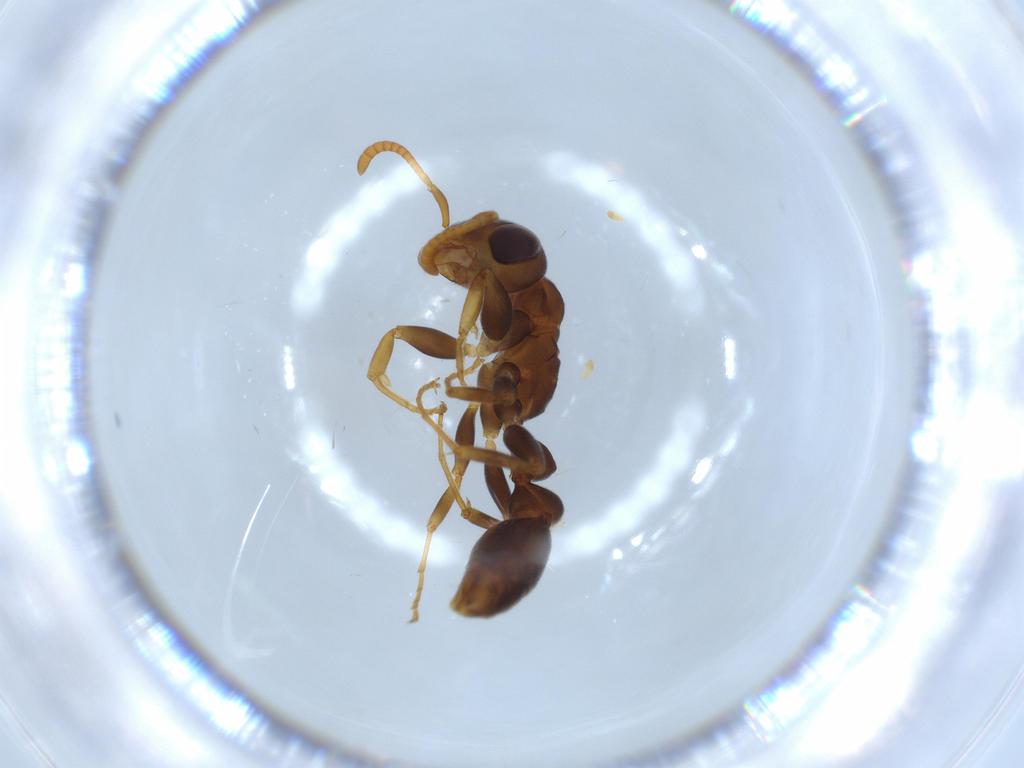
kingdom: Animalia
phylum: Arthropoda
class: Insecta
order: Hymenoptera
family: Formicidae
